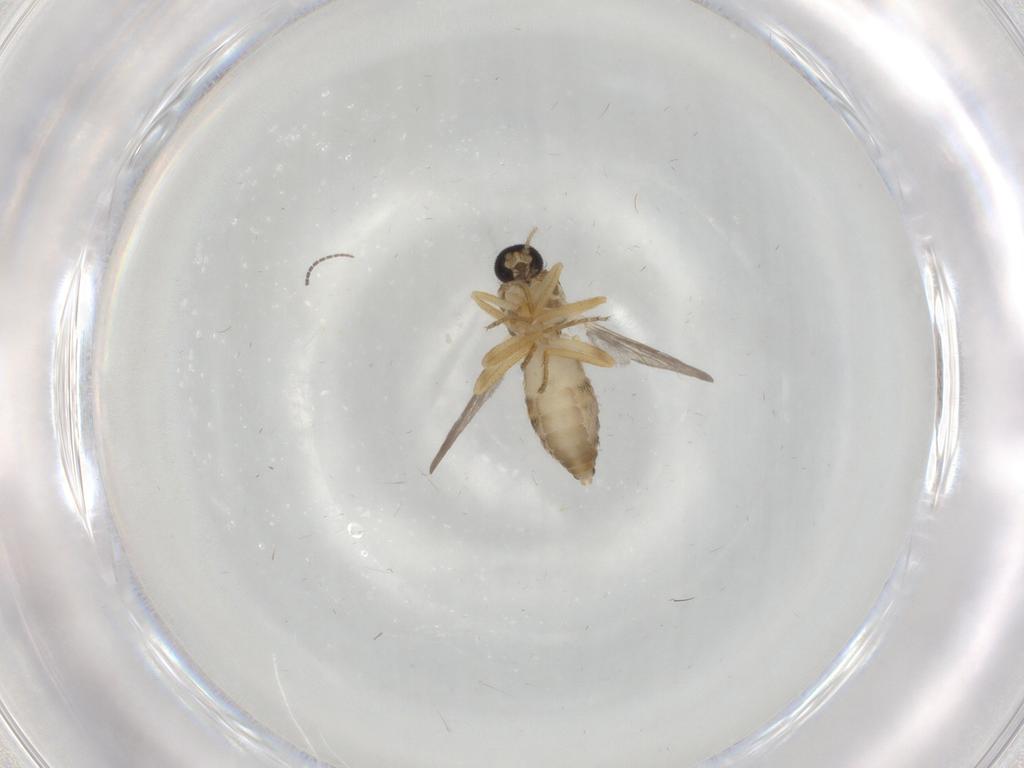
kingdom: Animalia
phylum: Arthropoda
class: Insecta
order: Diptera
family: Ceratopogonidae
